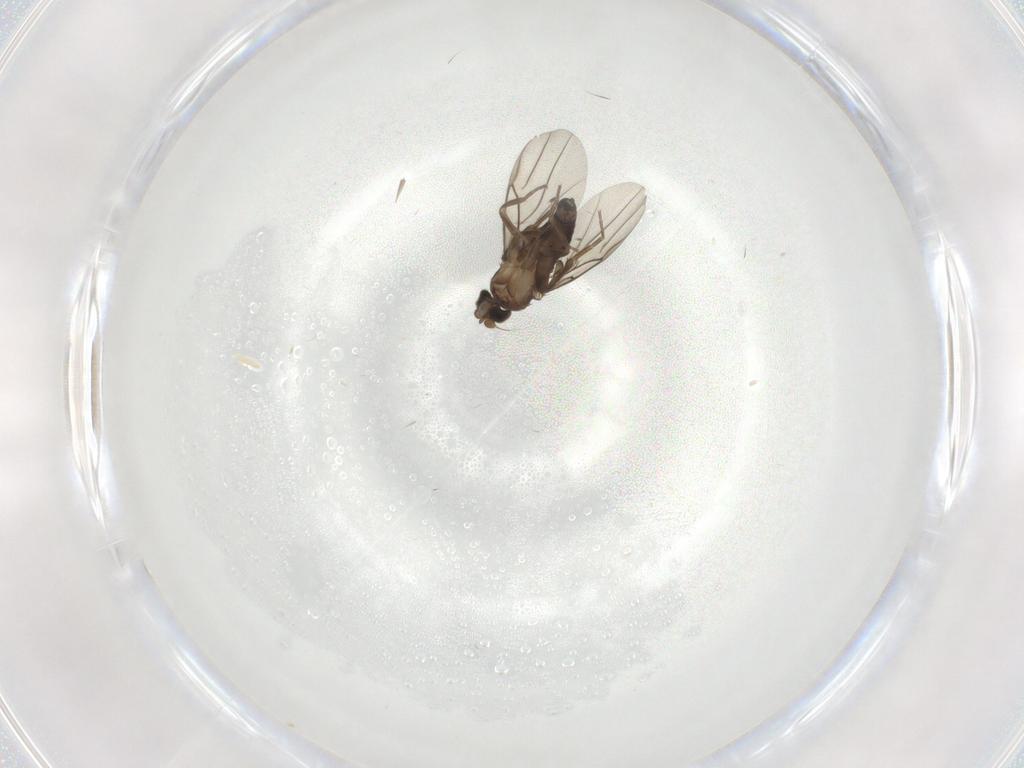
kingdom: Animalia
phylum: Arthropoda
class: Insecta
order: Diptera
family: Phoridae
